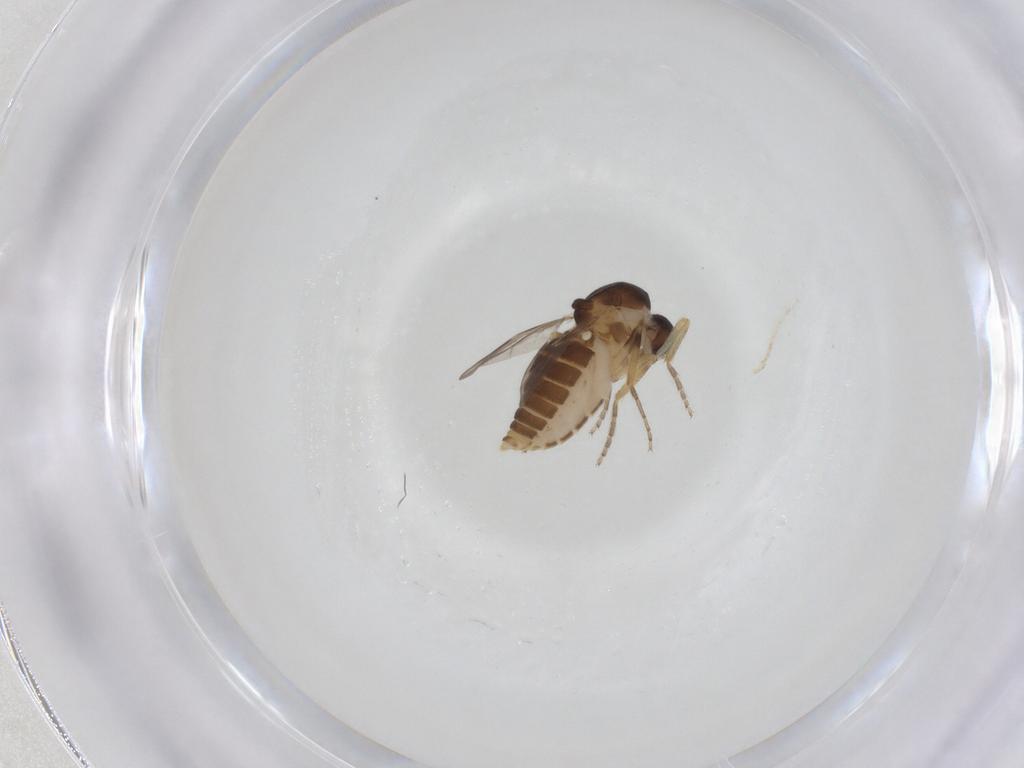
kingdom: Animalia
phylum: Arthropoda
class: Insecta
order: Diptera
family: Ceratopogonidae
